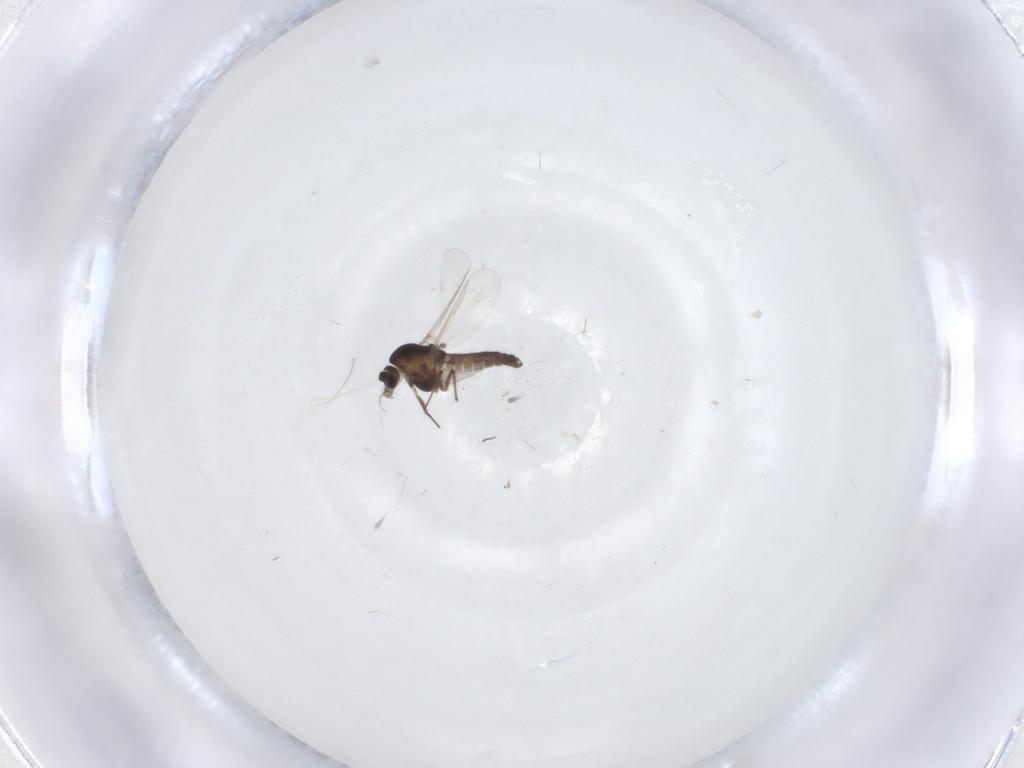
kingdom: Animalia
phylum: Arthropoda
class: Insecta
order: Diptera
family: Chironomidae
